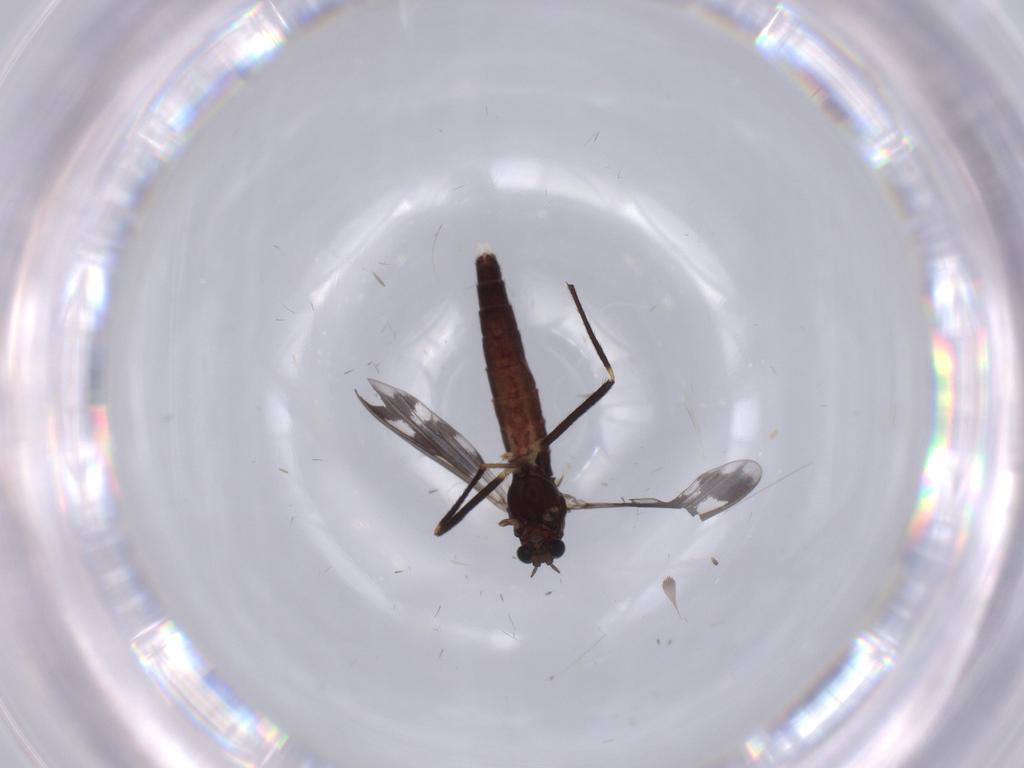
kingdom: Animalia
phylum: Arthropoda
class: Insecta
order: Diptera
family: Chironomidae
